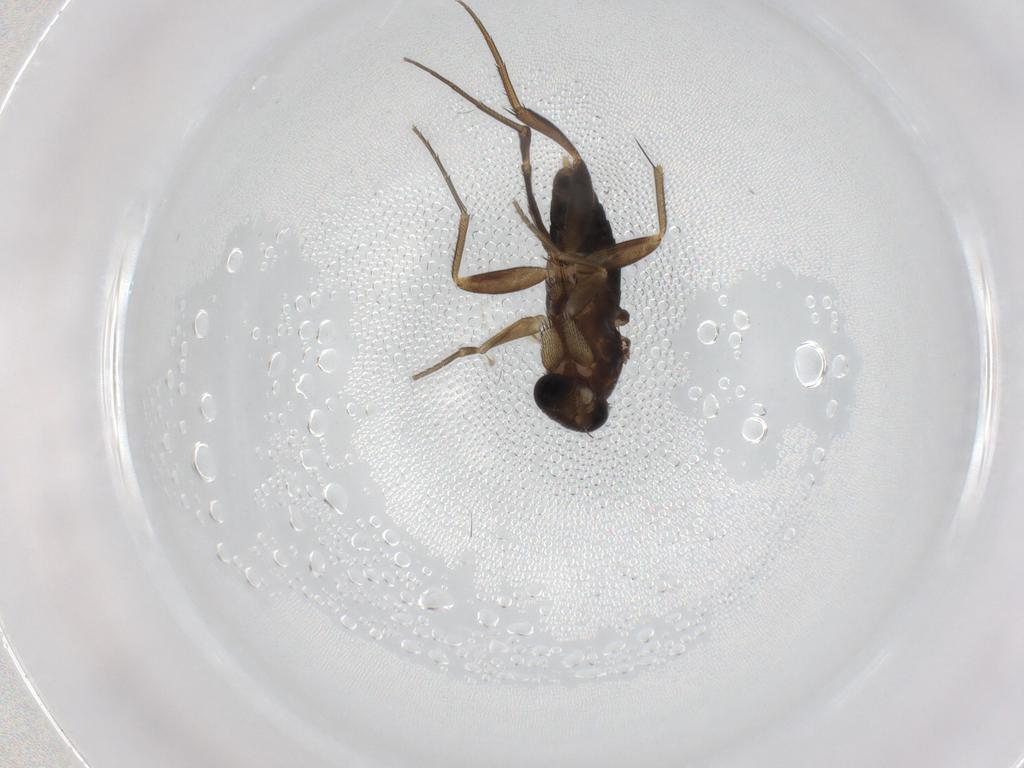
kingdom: Animalia
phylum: Arthropoda
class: Insecta
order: Diptera
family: Phoridae
